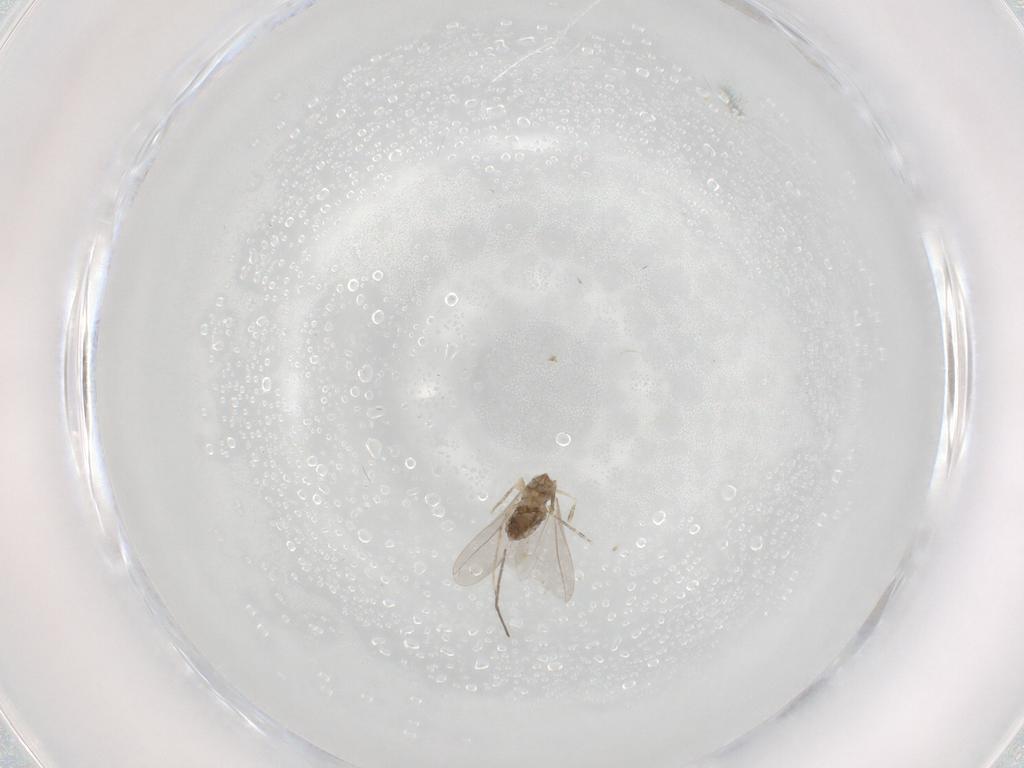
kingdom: Animalia
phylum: Arthropoda
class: Insecta
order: Diptera
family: Cecidomyiidae
